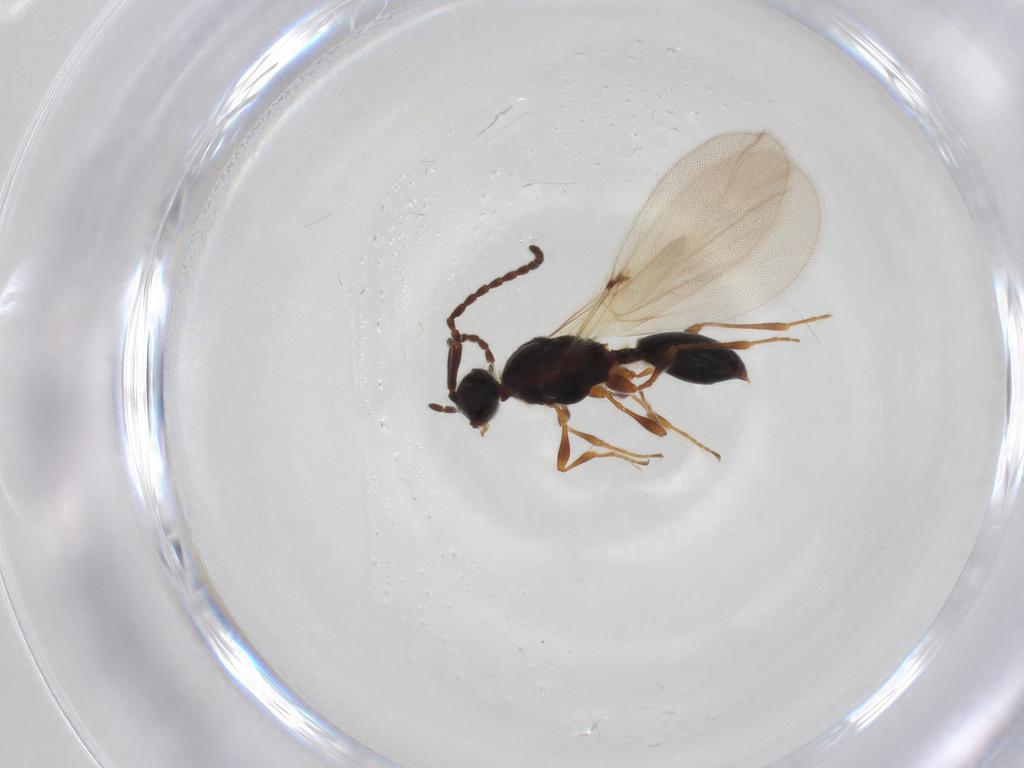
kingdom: Animalia
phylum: Arthropoda
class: Insecta
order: Hymenoptera
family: Diapriidae
